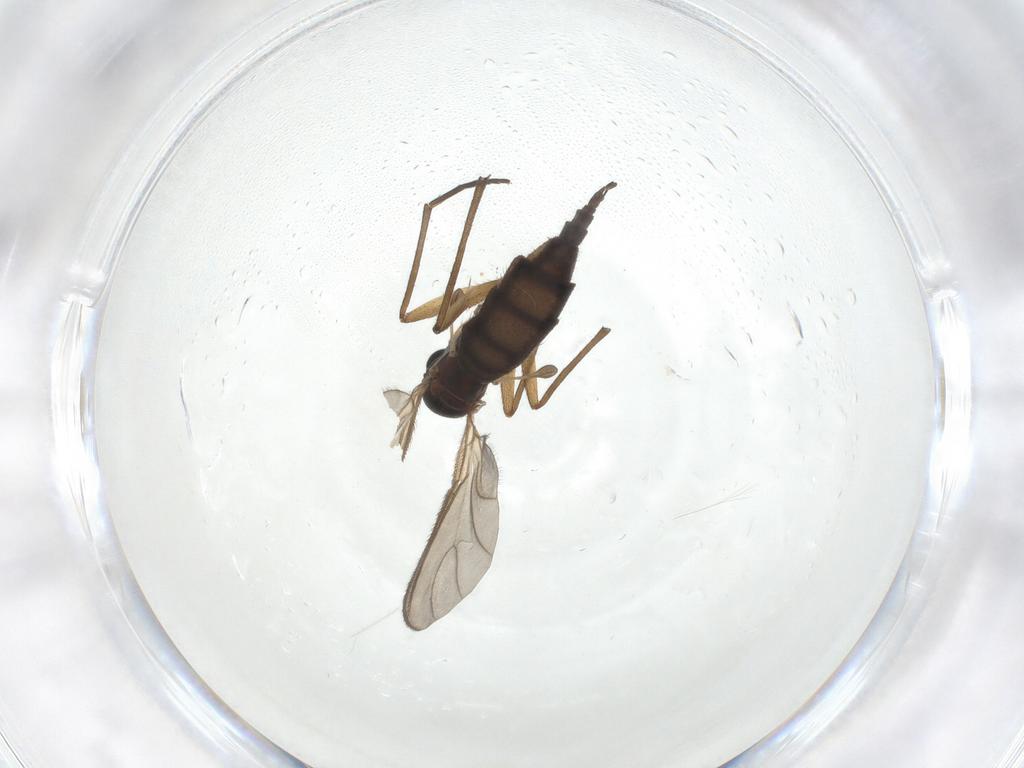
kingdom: Animalia
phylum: Arthropoda
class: Insecta
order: Diptera
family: Sciaridae
